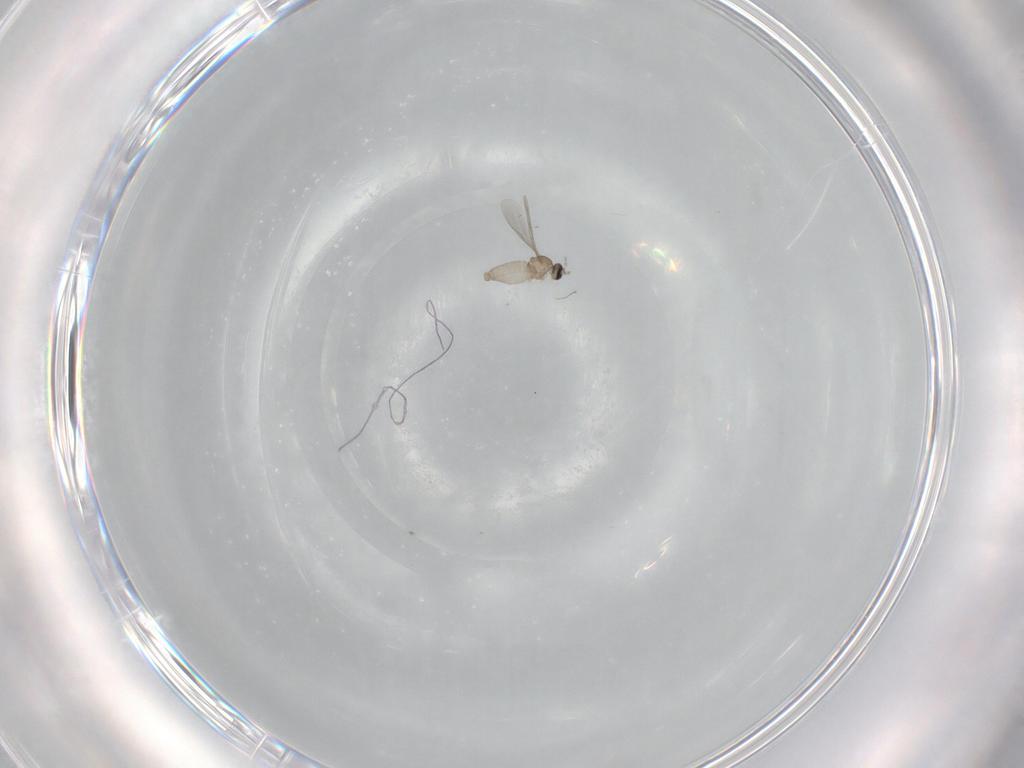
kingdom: Animalia
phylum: Arthropoda
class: Insecta
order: Diptera
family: Cecidomyiidae
